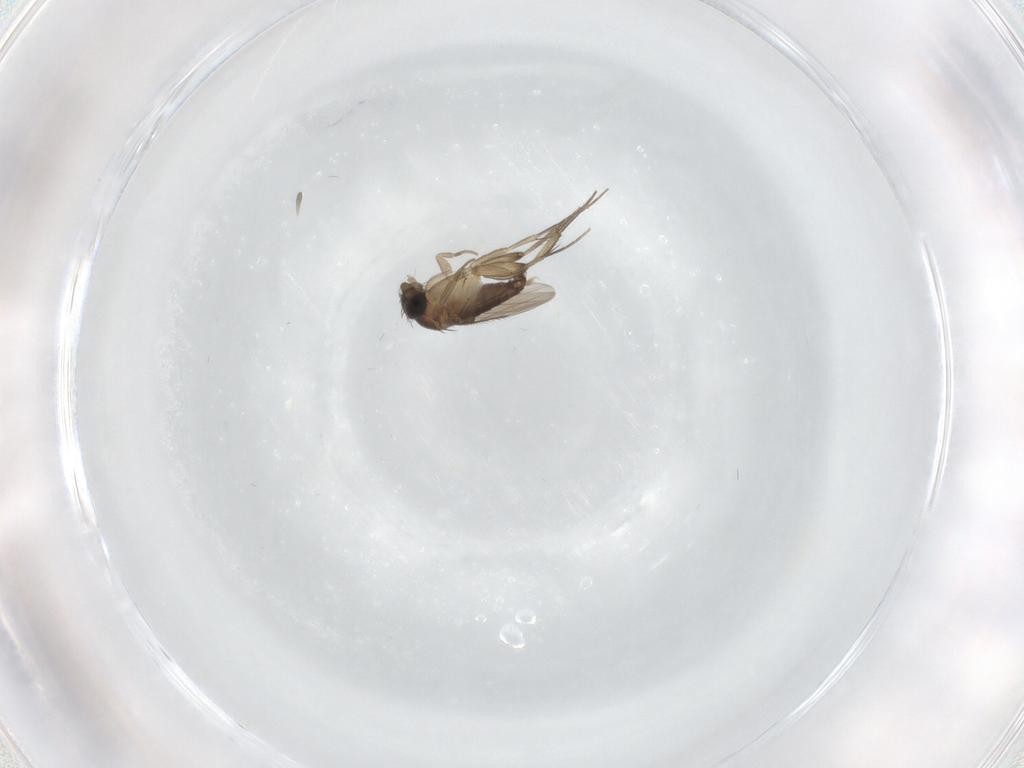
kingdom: Animalia
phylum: Arthropoda
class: Insecta
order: Diptera
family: Phoridae
